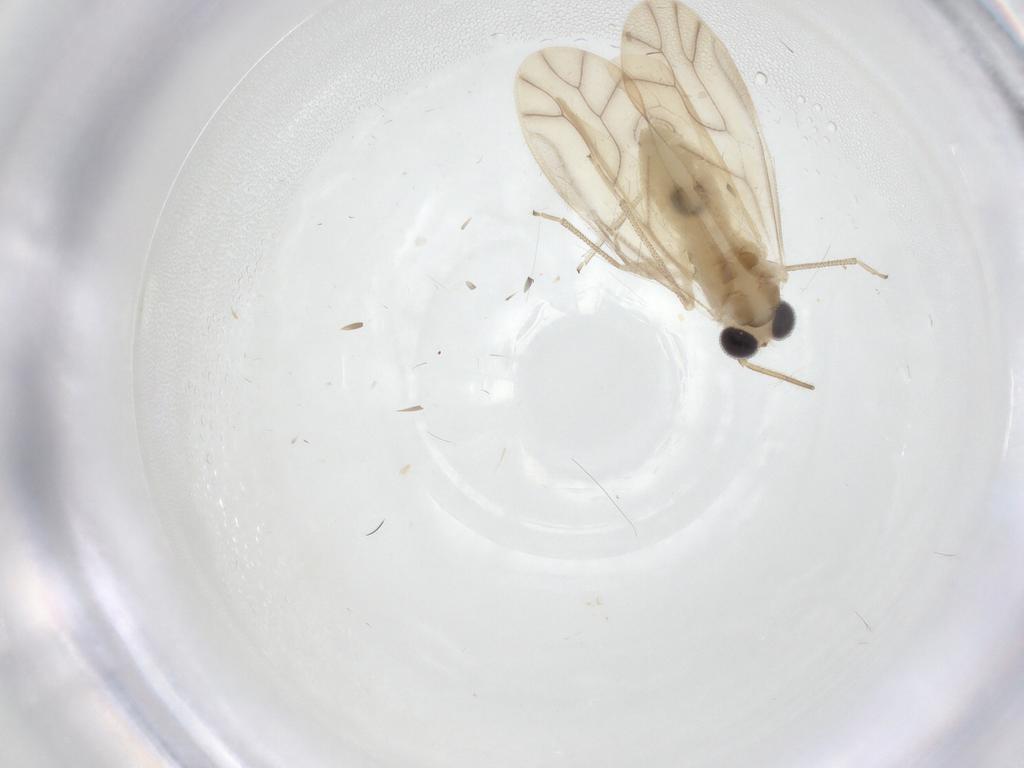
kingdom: Animalia
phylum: Arthropoda
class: Insecta
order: Psocodea
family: Caeciliusidae
